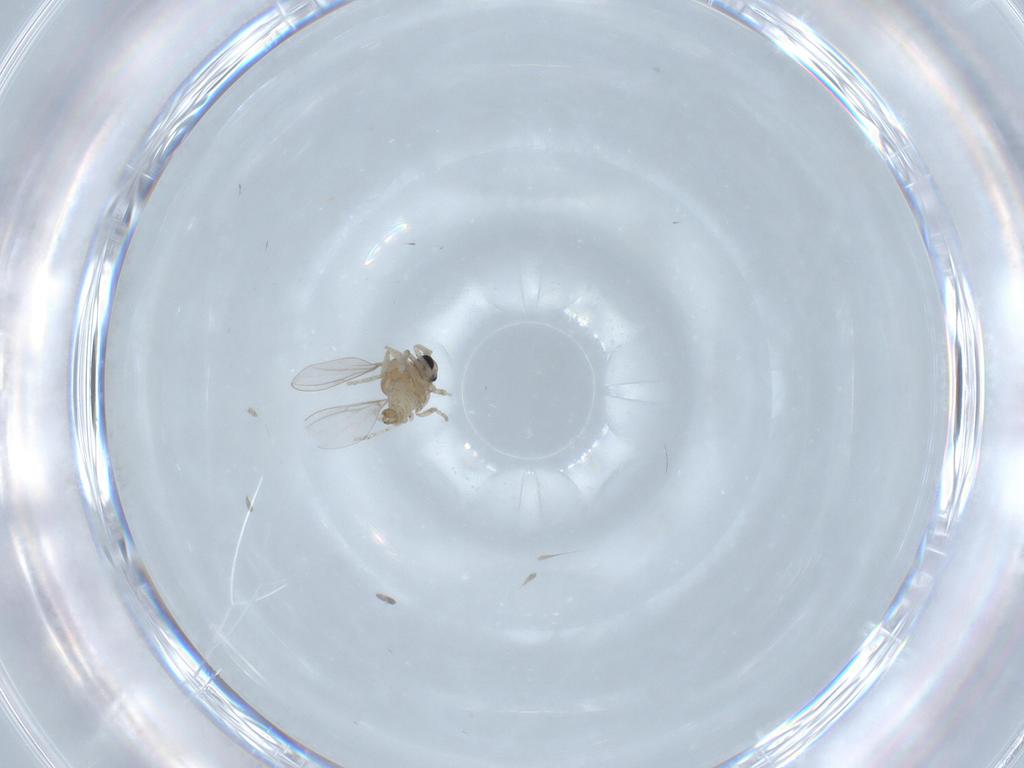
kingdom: Animalia
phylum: Arthropoda
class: Insecta
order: Diptera
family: Cecidomyiidae
